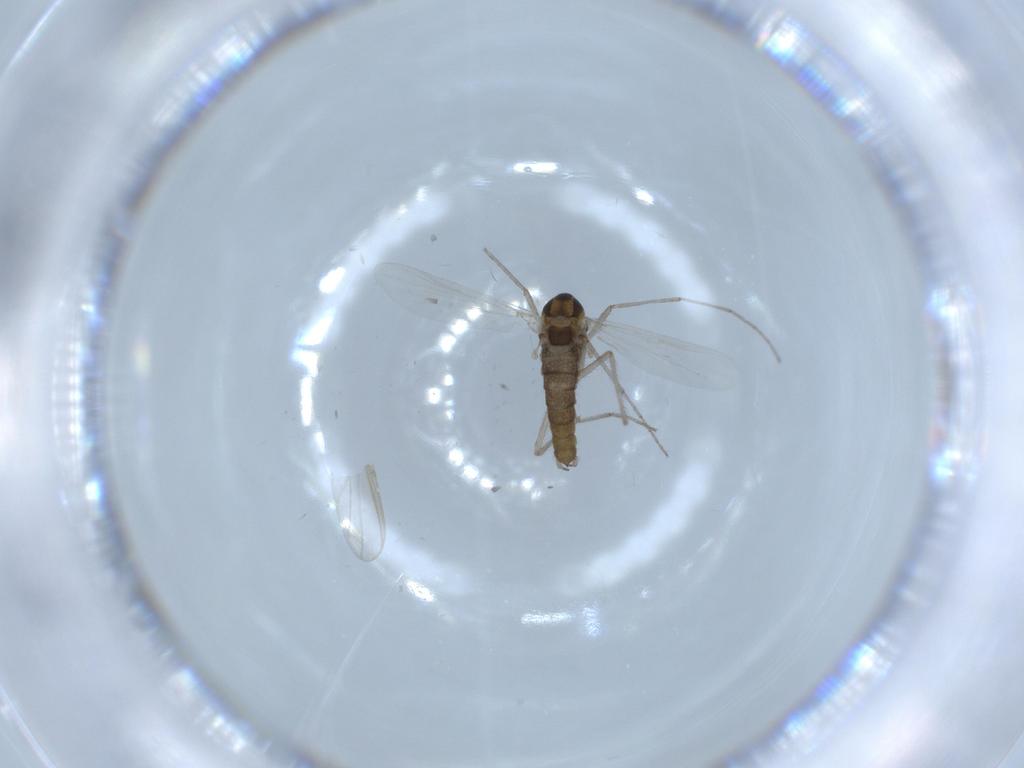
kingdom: Animalia
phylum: Arthropoda
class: Insecta
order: Diptera
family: Chironomidae
